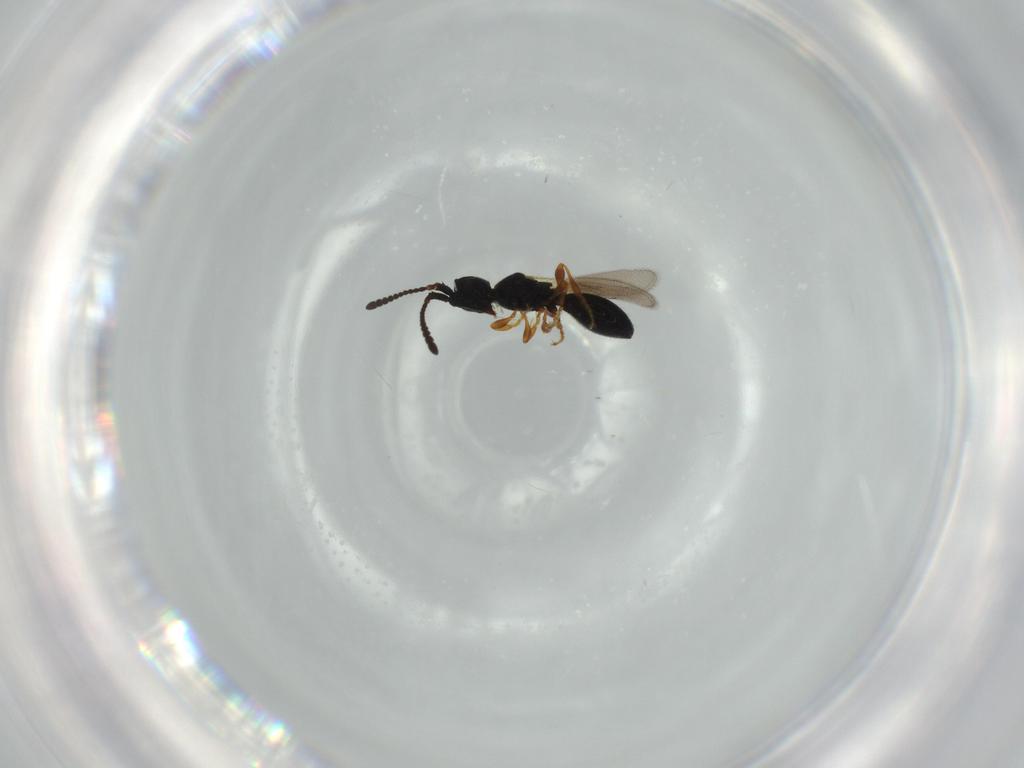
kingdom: Animalia
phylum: Arthropoda
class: Insecta
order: Hymenoptera
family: Diapriidae
